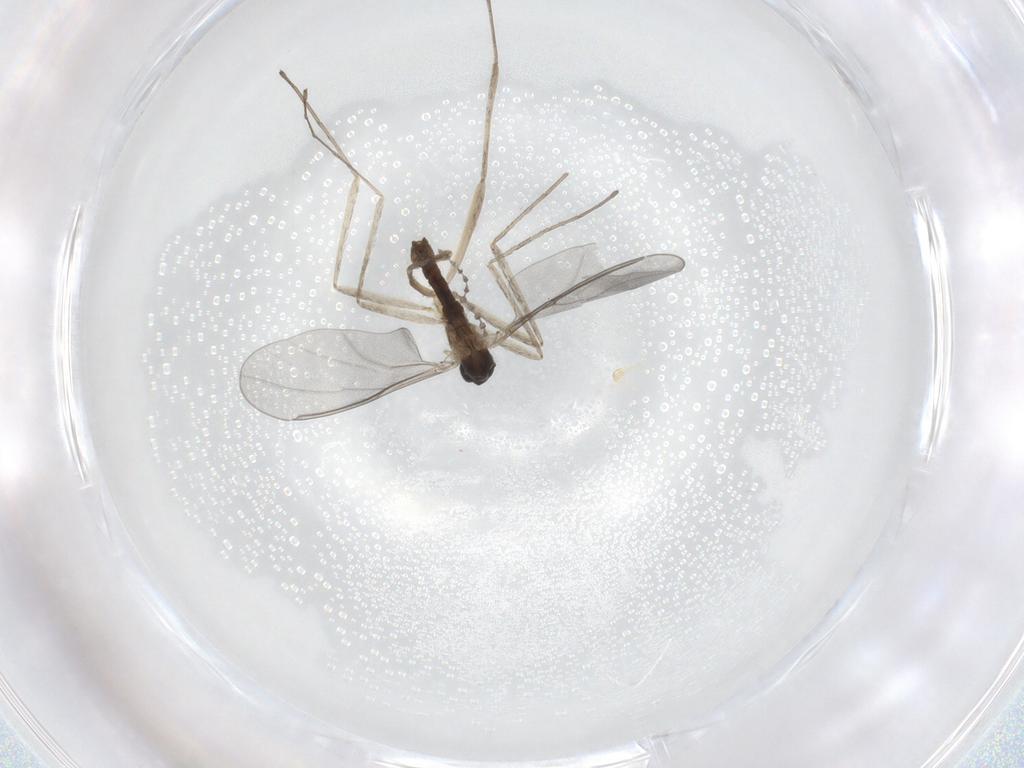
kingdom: Animalia
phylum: Arthropoda
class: Insecta
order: Diptera
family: Cecidomyiidae
